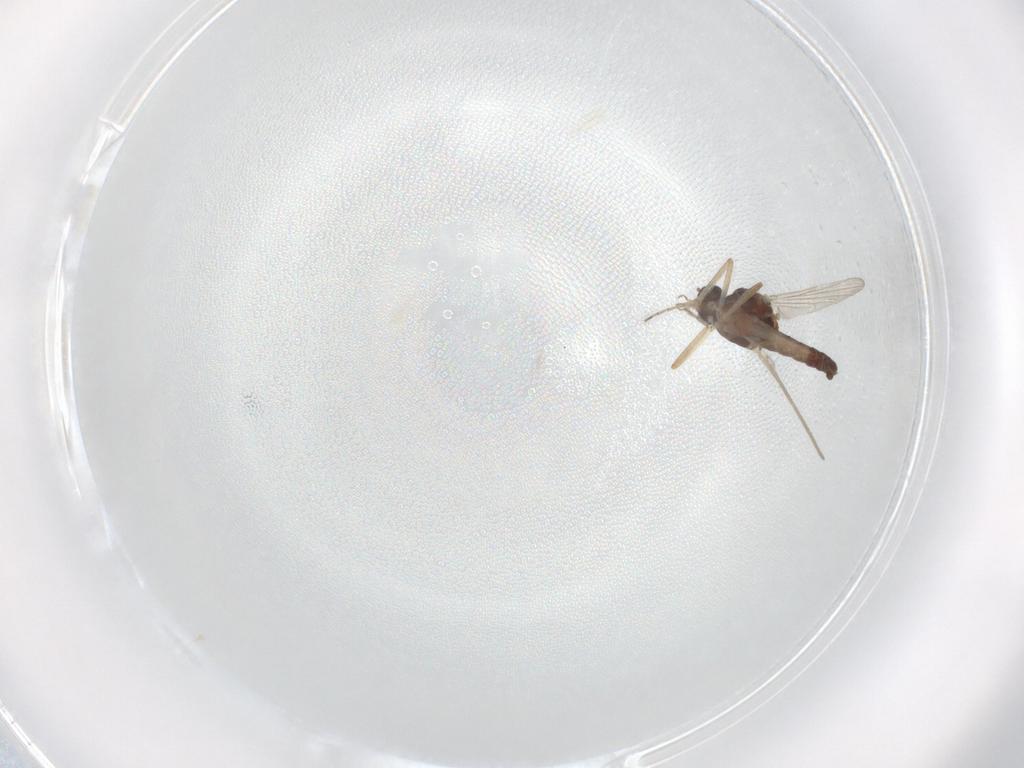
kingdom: Animalia
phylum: Arthropoda
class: Insecta
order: Diptera
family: Ceratopogonidae
